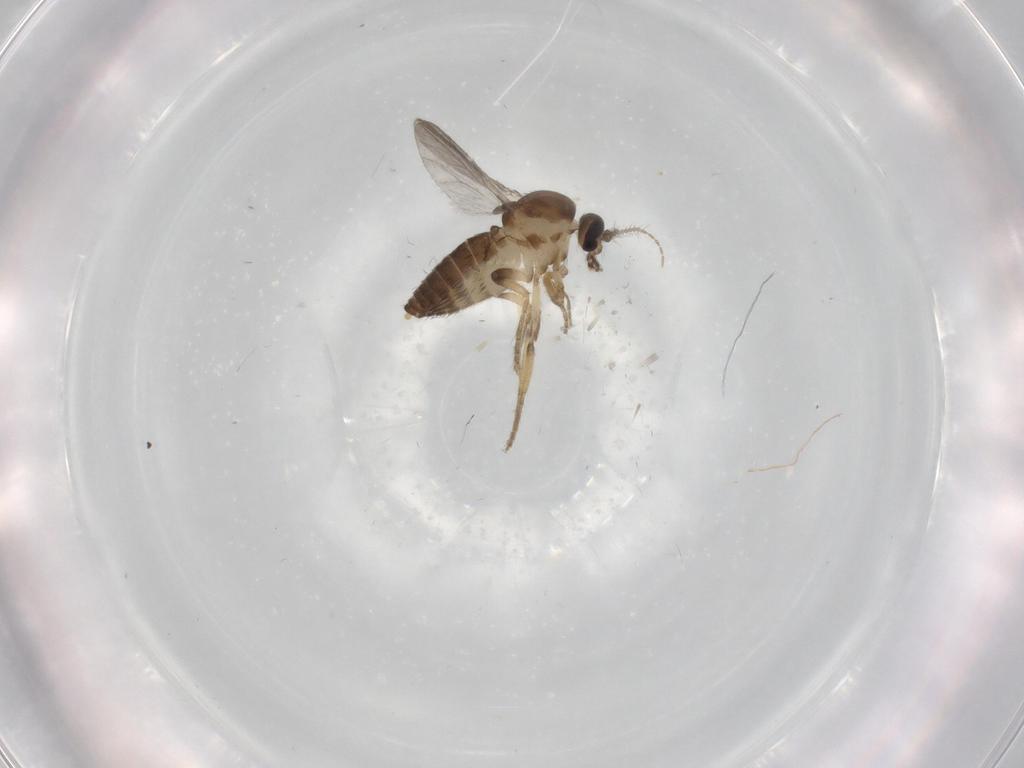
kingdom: Animalia
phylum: Arthropoda
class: Insecta
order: Diptera
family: Ceratopogonidae
